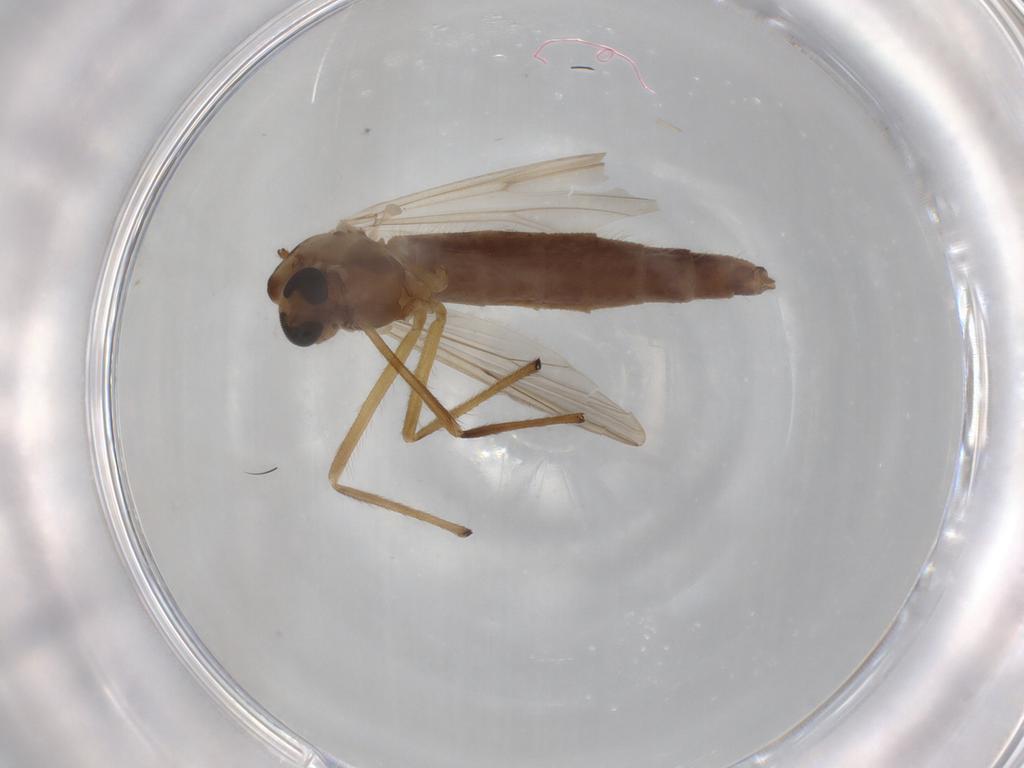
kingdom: Animalia
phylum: Arthropoda
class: Insecta
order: Diptera
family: Chironomidae
